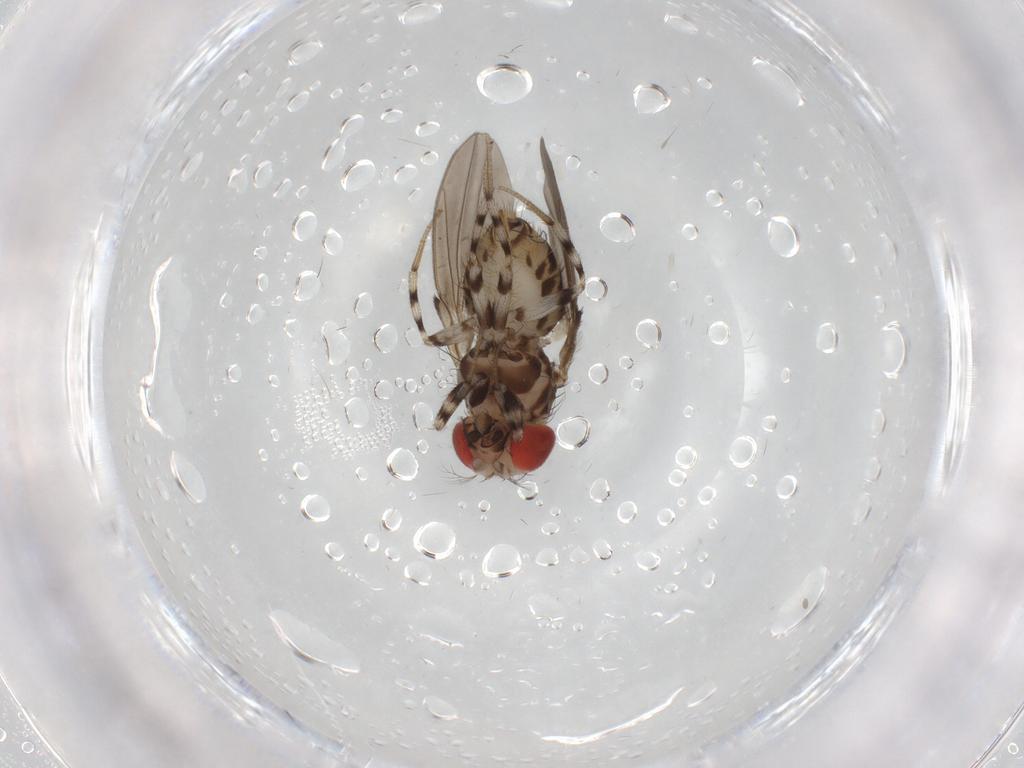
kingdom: Animalia
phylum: Arthropoda
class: Insecta
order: Diptera
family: Drosophilidae
